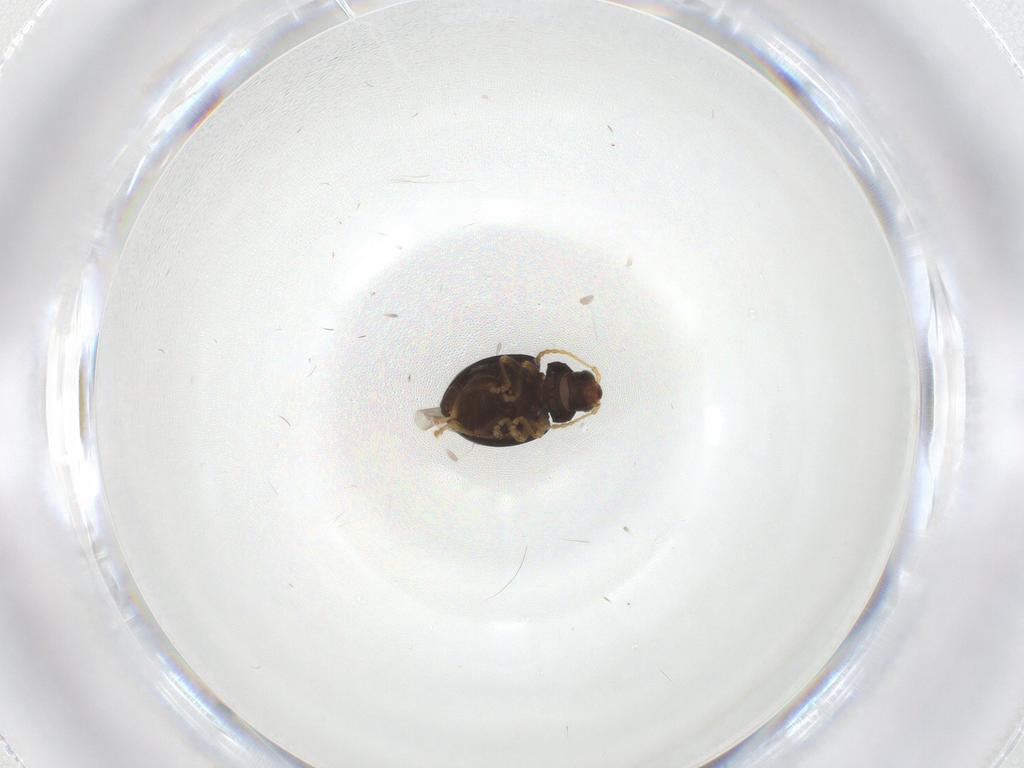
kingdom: Animalia
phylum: Arthropoda
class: Insecta
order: Coleoptera
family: Chrysomelidae
